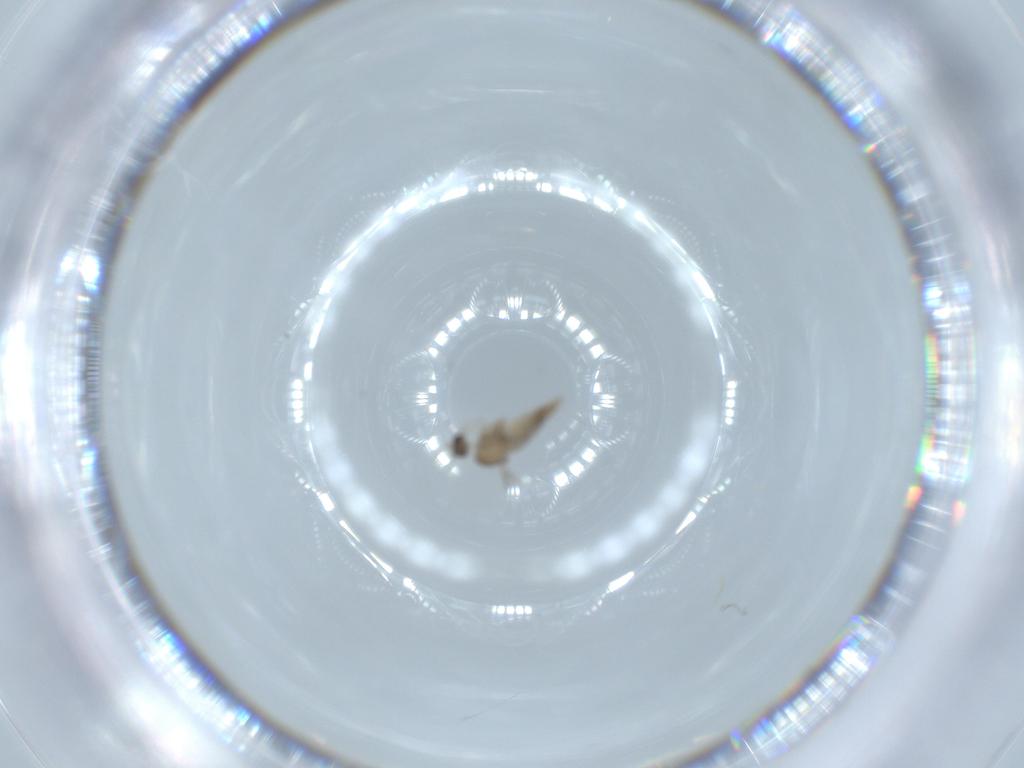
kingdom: Animalia
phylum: Arthropoda
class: Insecta
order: Diptera
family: Cecidomyiidae
